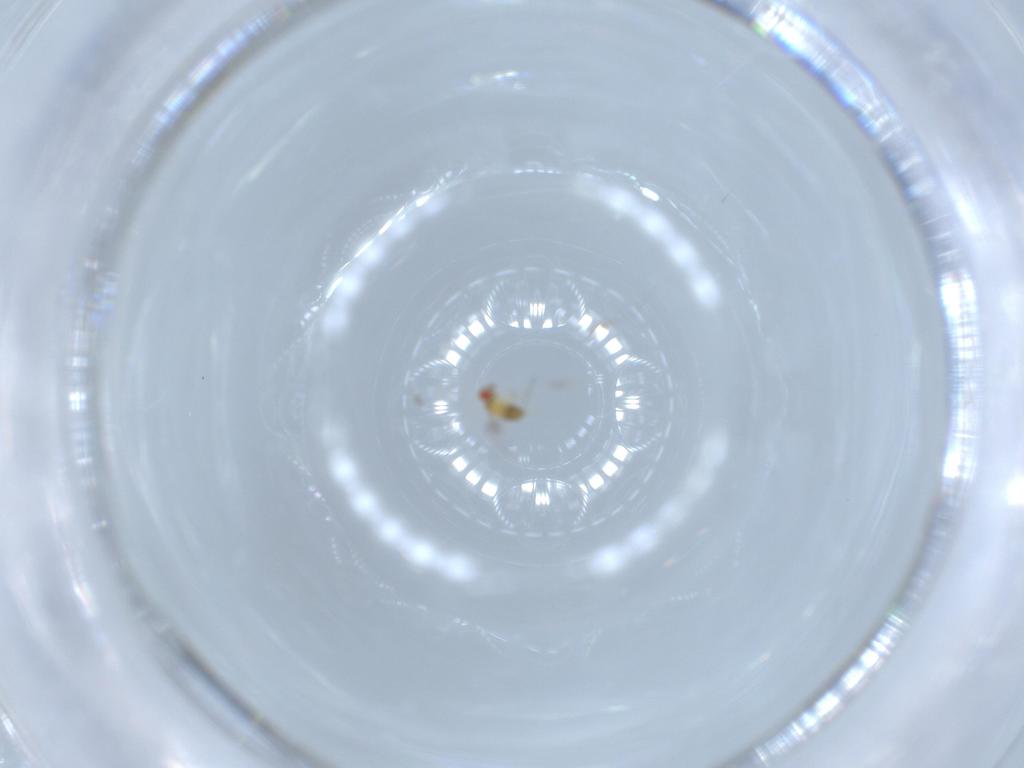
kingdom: Animalia
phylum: Arthropoda
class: Insecta
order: Hymenoptera
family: Trichogrammatidae
